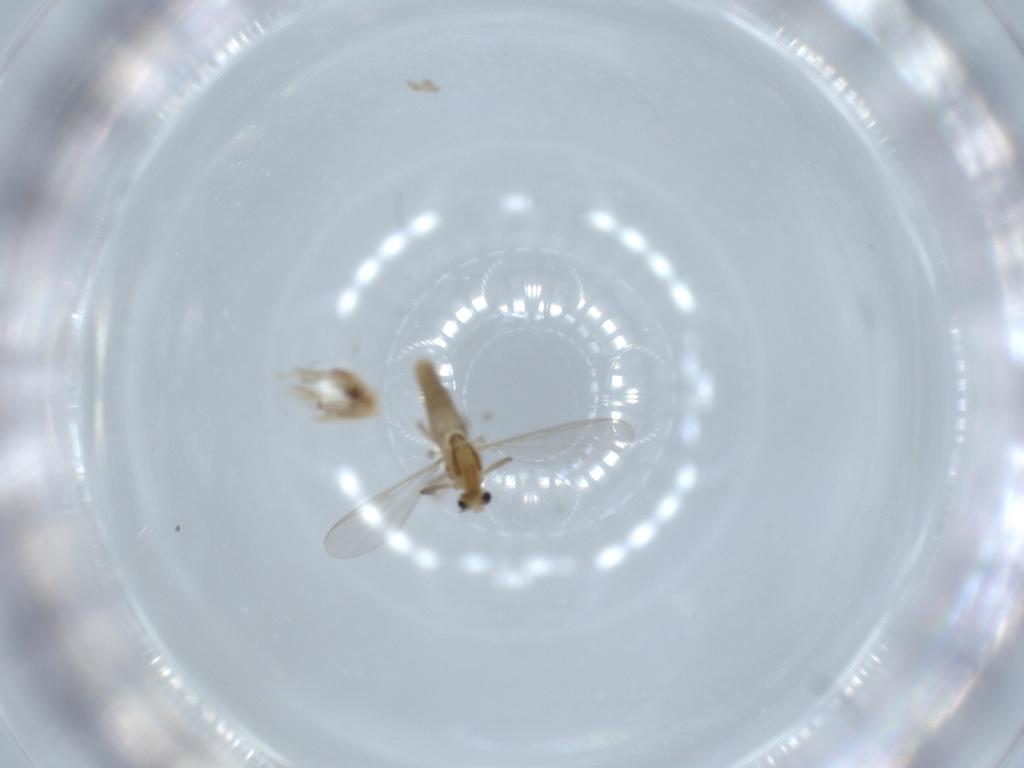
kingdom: Animalia
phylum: Arthropoda
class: Insecta
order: Diptera
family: Chironomidae
